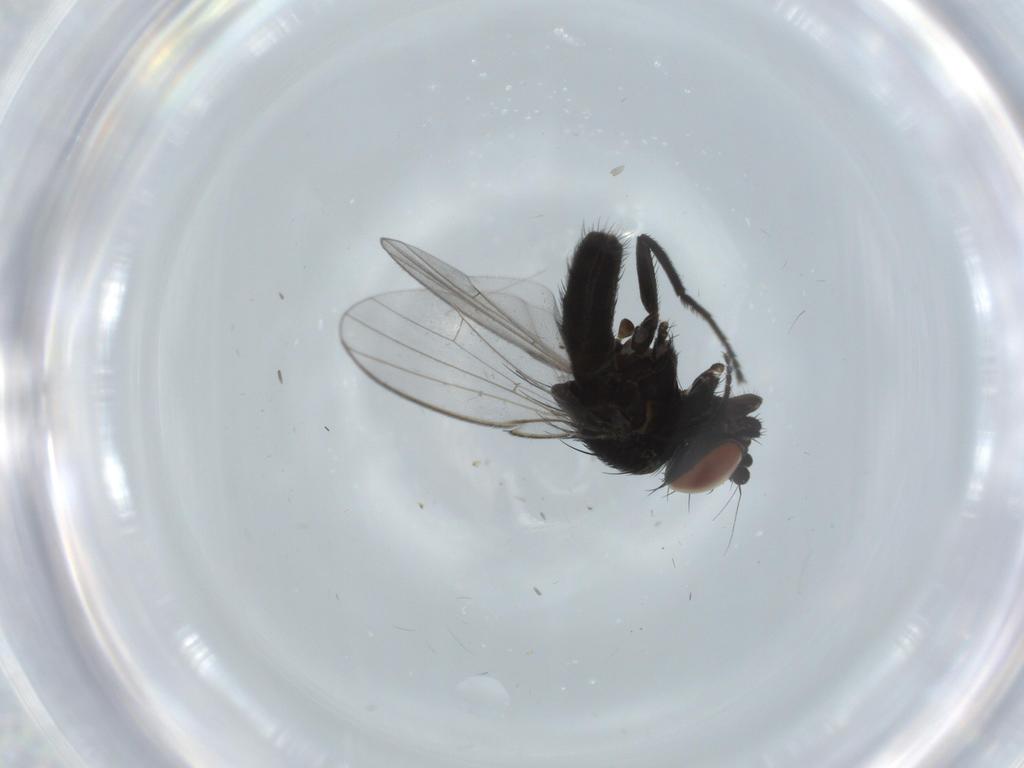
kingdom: Animalia
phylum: Arthropoda
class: Insecta
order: Diptera
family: Milichiidae
